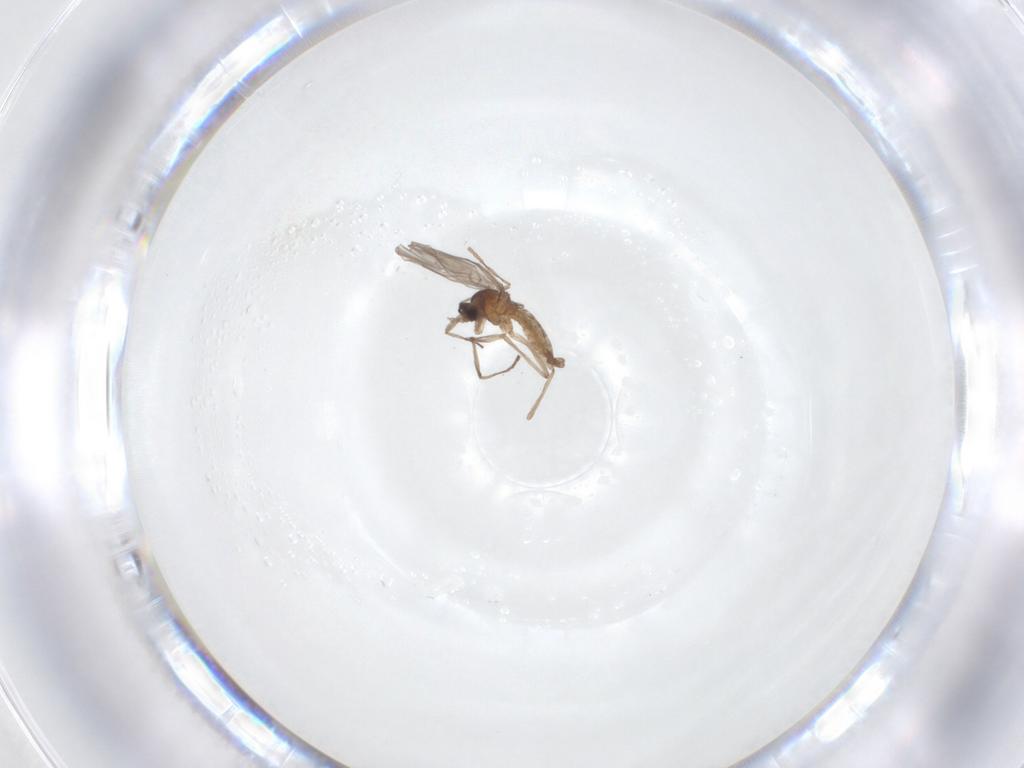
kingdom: Animalia
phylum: Arthropoda
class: Insecta
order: Diptera
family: Cecidomyiidae
